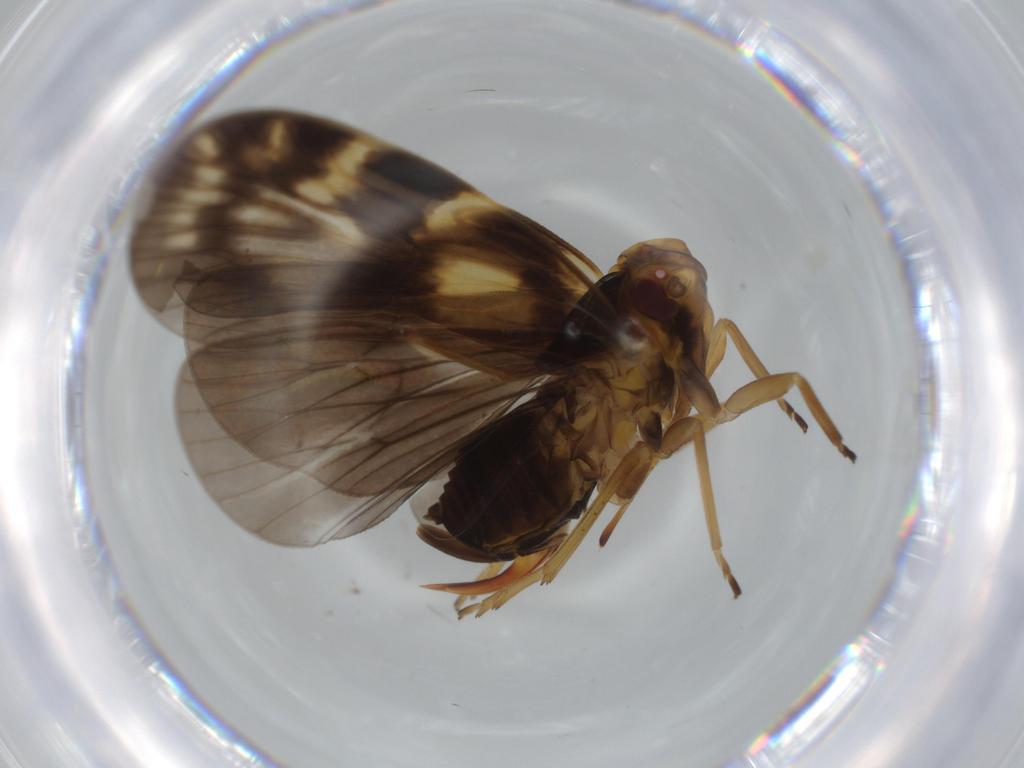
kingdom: Animalia
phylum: Arthropoda
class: Insecta
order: Hemiptera
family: Cixiidae
